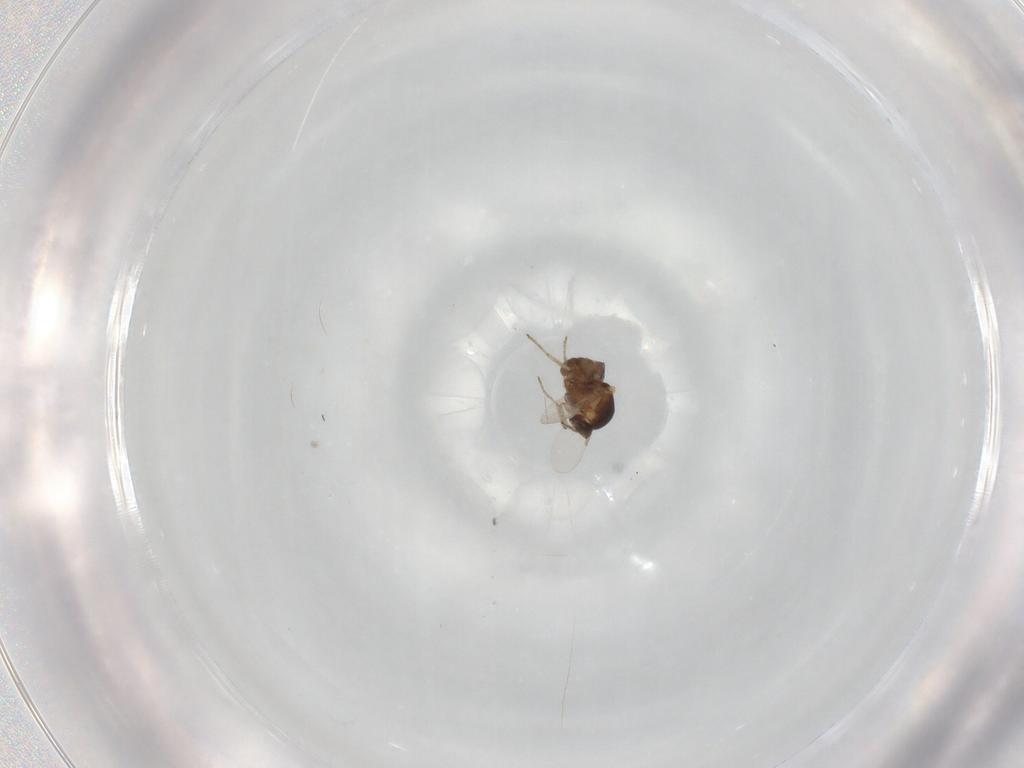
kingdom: Animalia
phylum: Arthropoda
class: Insecta
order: Diptera
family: Ceratopogonidae
